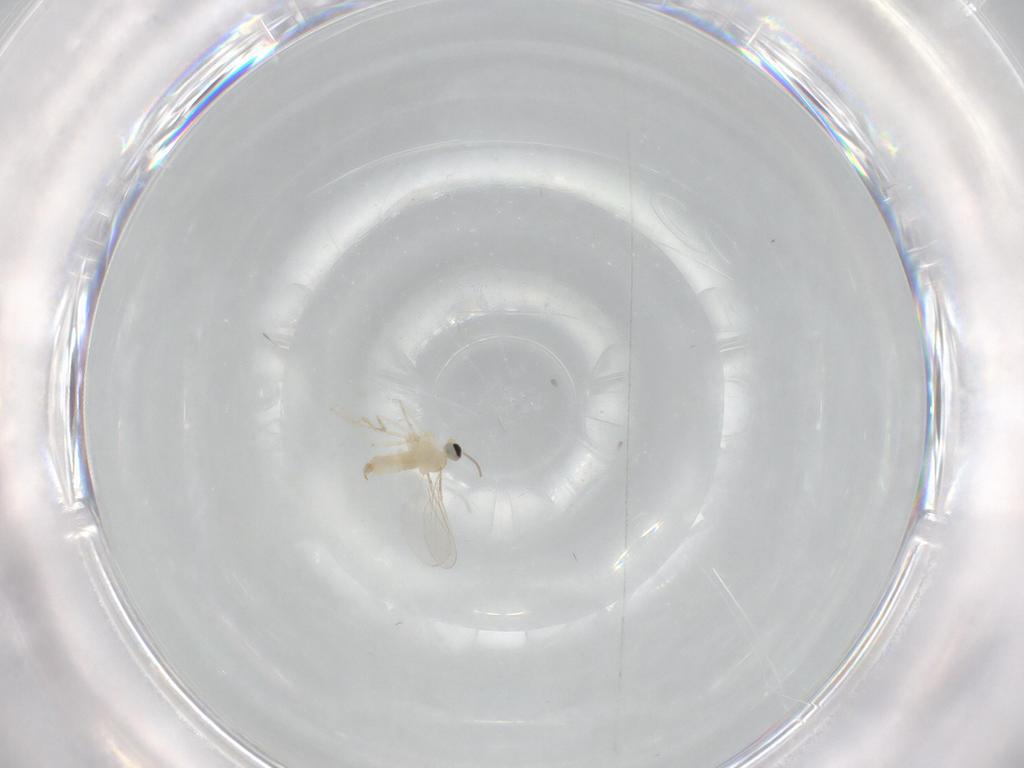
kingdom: Animalia
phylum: Arthropoda
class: Insecta
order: Diptera
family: Cecidomyiidae
